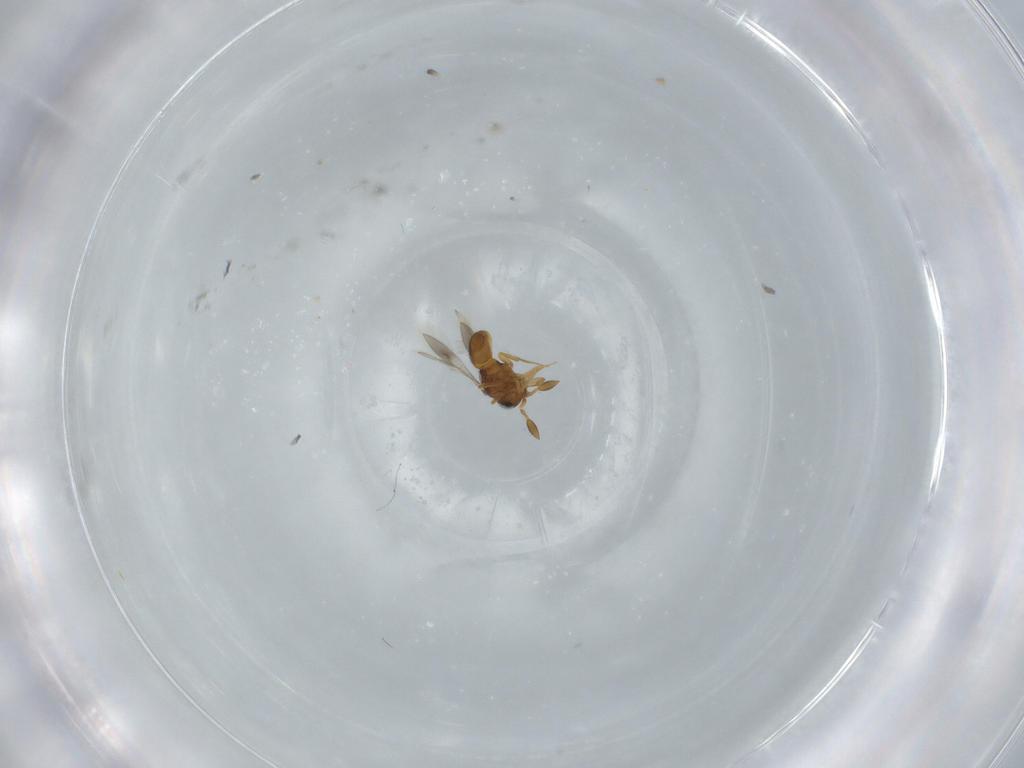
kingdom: Animalia
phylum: Arthropoda
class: Insecta
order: Hymenoptera
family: Scelionidae
